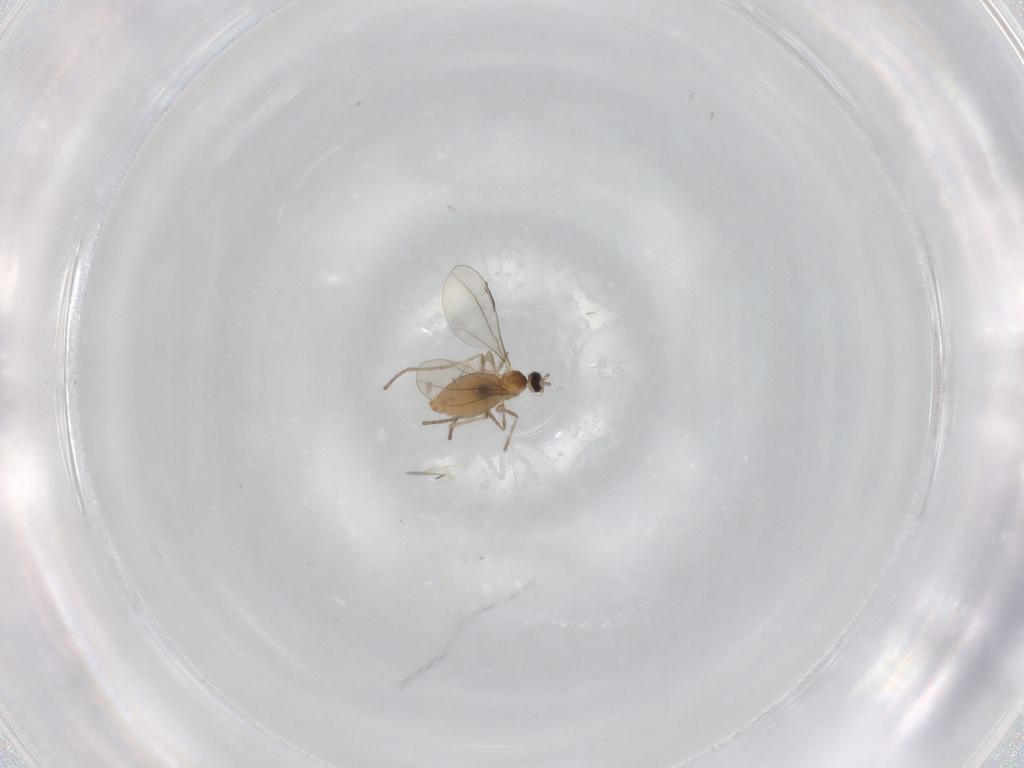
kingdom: Animalia
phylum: Arthropoda
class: Insecta
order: Diptera
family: Cecidomyiidae
